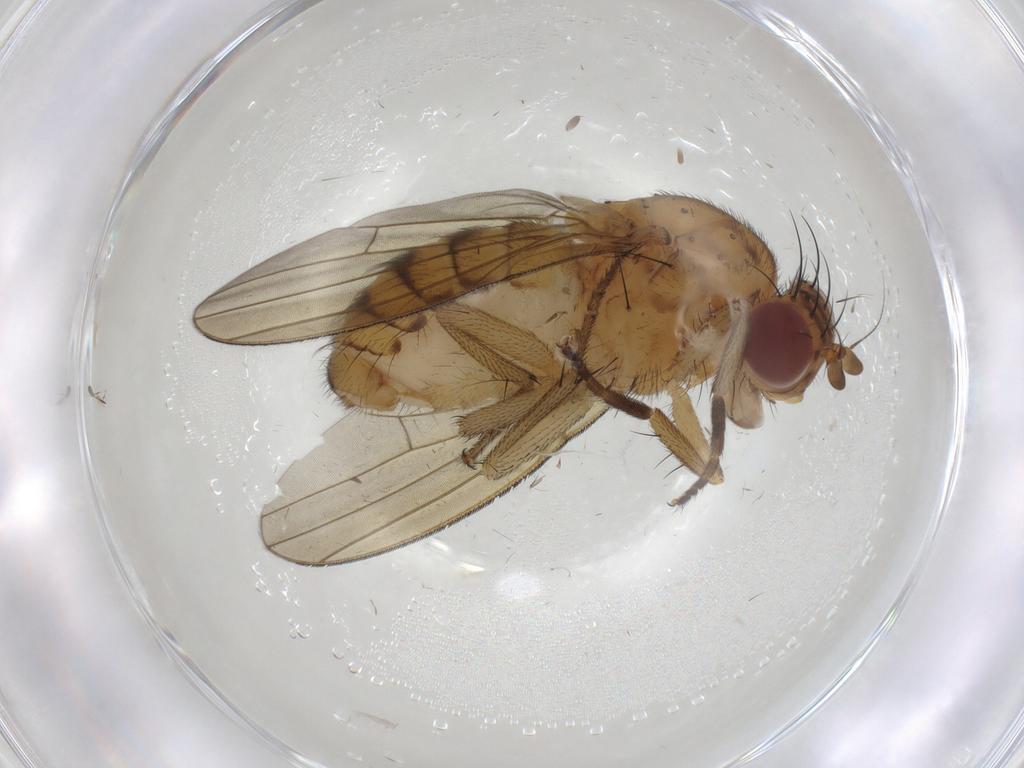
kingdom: Animalia
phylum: Arthropoda
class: Insecta
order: Diptera
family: Lauxaniidae
